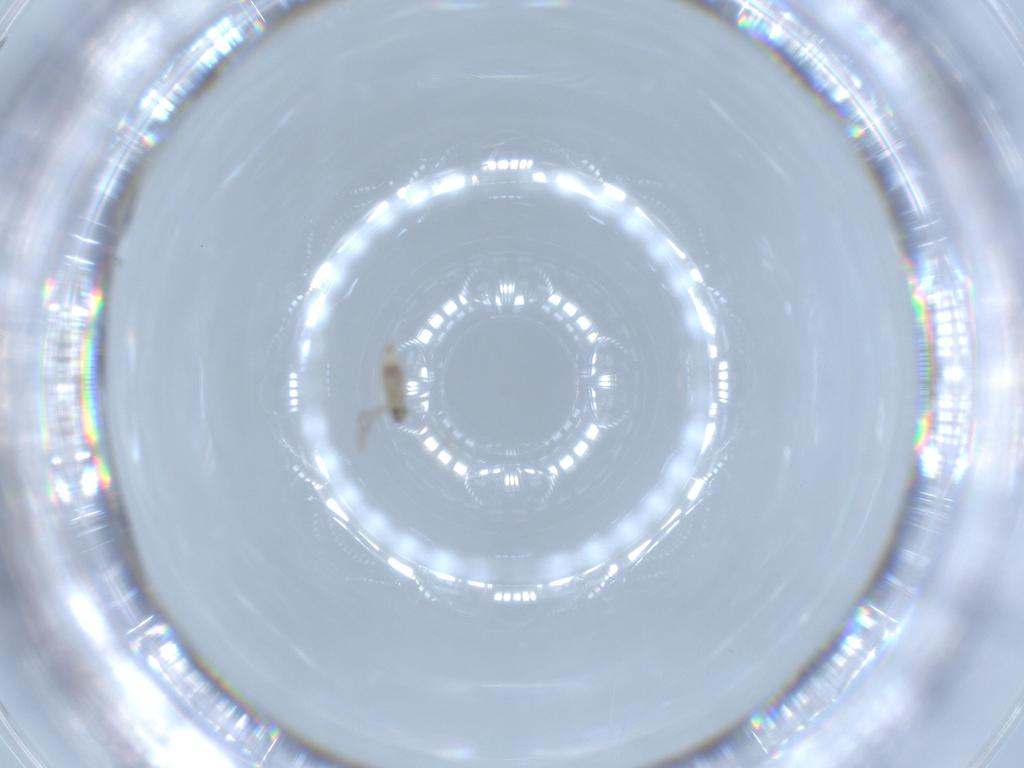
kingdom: Animalia
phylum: Arthropoda
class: Insecta
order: Diptera
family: Cecidomyiidae
